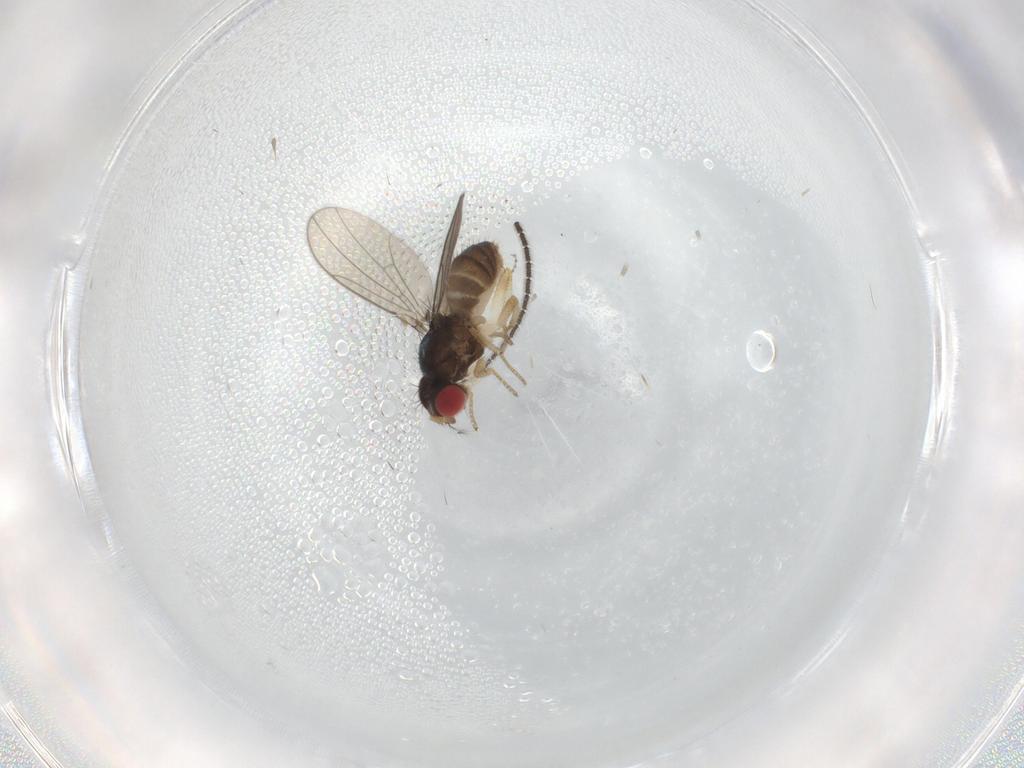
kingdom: Animalia
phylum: Arthropoda
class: Insecta
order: Diptera
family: Drosophilidae
